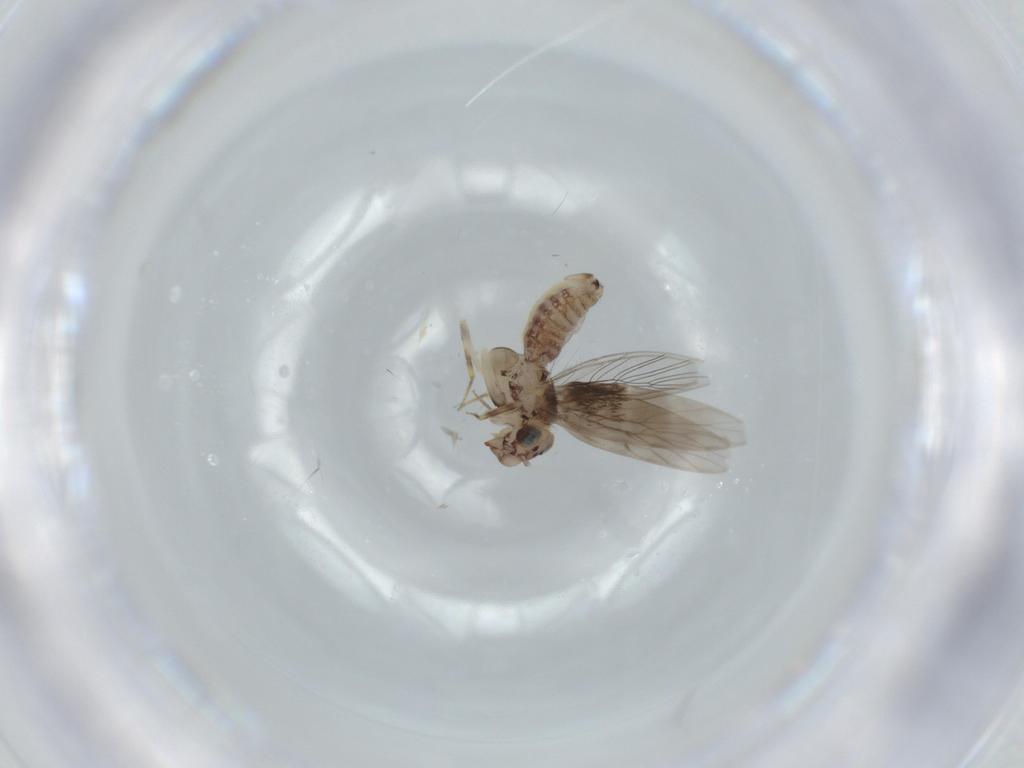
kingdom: Animalia
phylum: Arthropoda
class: Insecta
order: Psocodea
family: Lepidopsocidae
